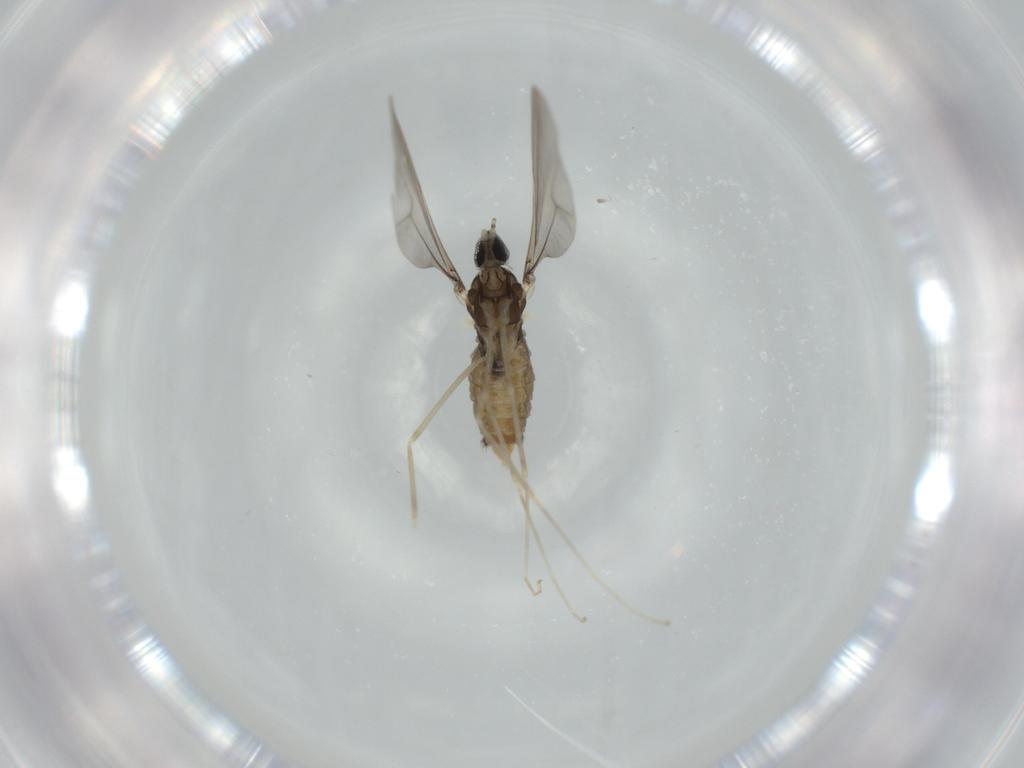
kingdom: Animalia
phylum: Arthropoda
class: Insecta
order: Diptera
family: Cecidomyiidae
